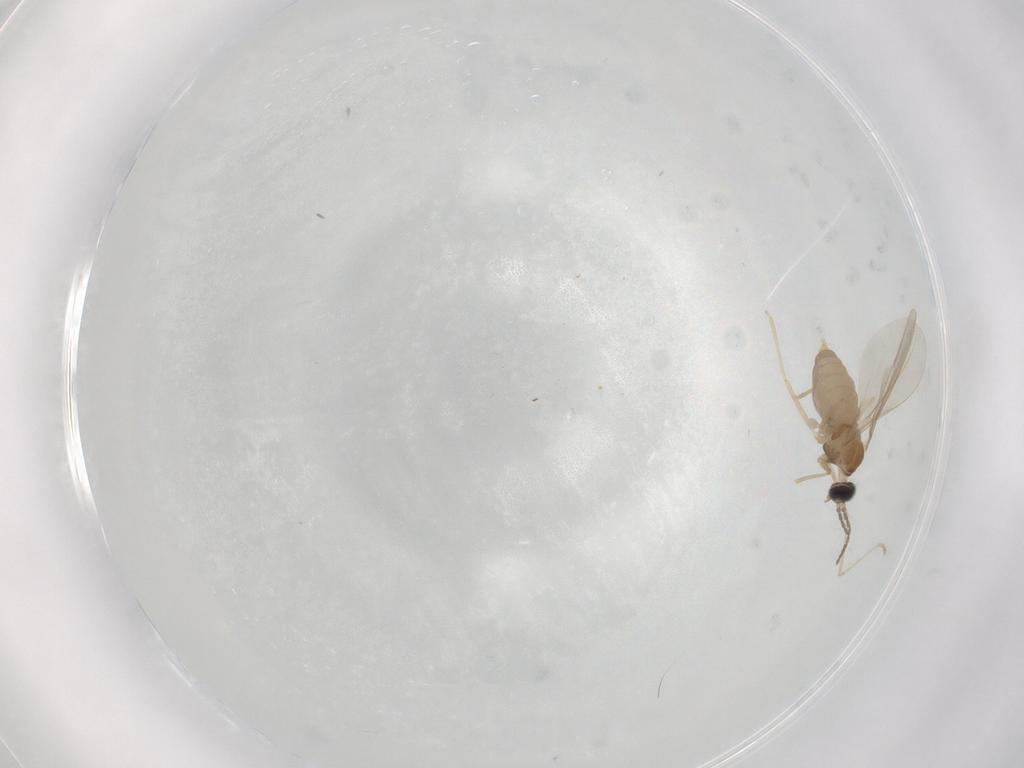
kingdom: Animalia
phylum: Arthropoda
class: Insecta
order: Diptera
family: Cecidomyiidae
